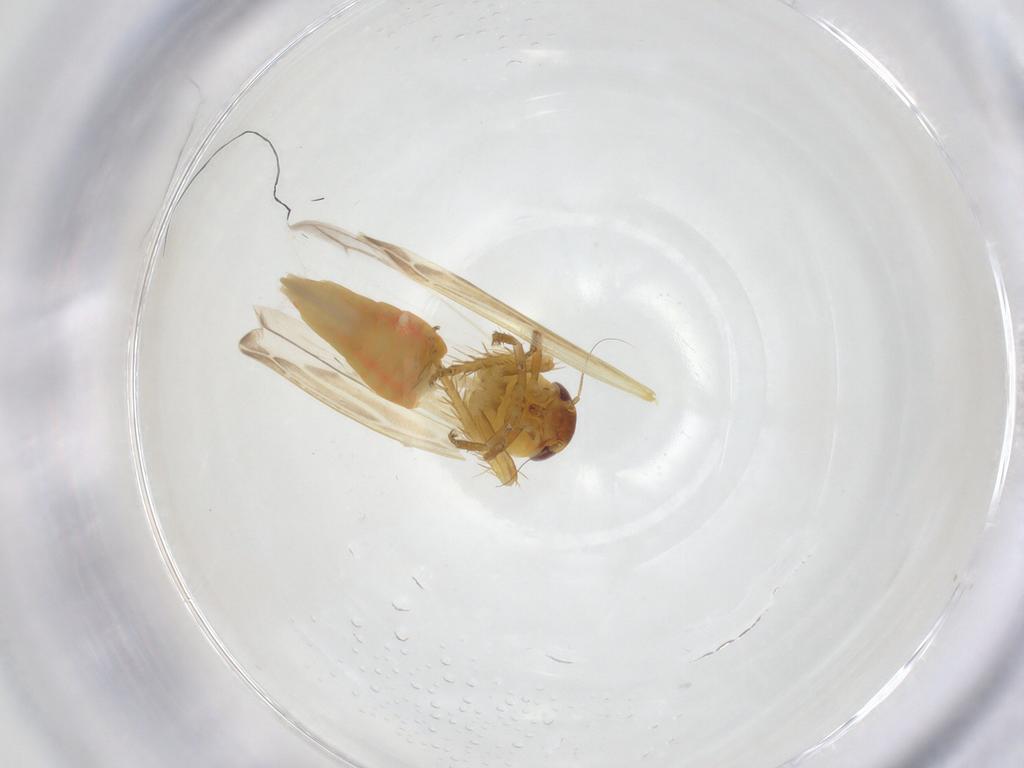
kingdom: Animalia
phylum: Arthropoda
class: Insecta
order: Hemiptera
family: Cicadellidae
